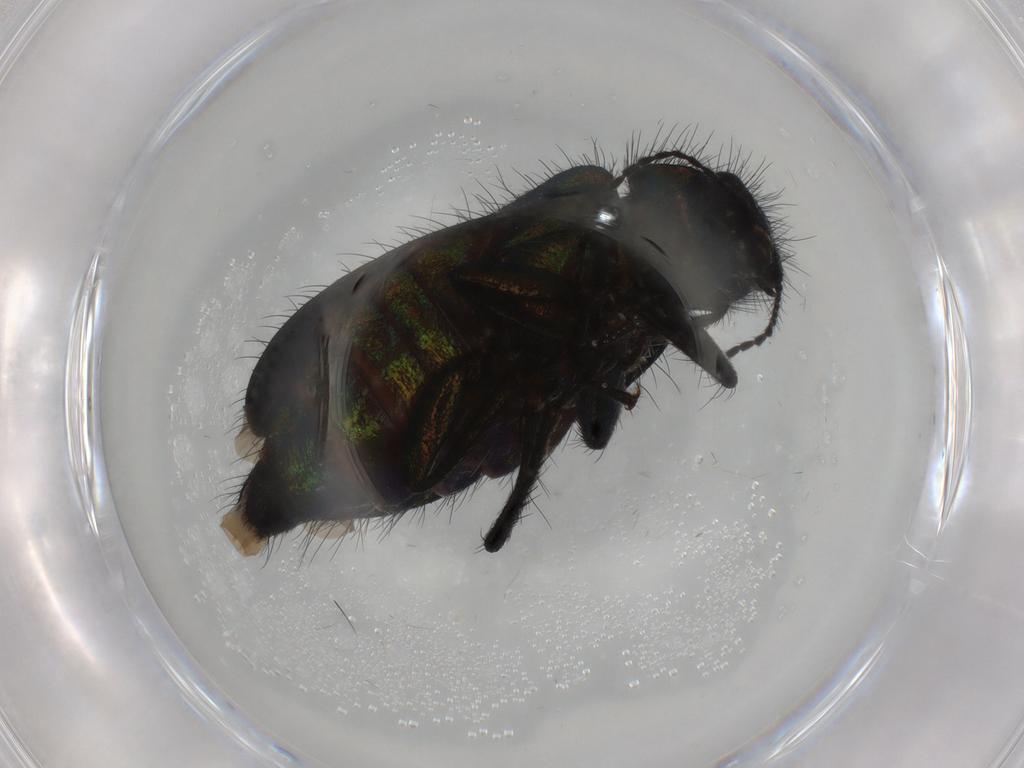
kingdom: Animalia
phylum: Arthropoda
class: Insecta
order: Coleoptera
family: Melyridae
